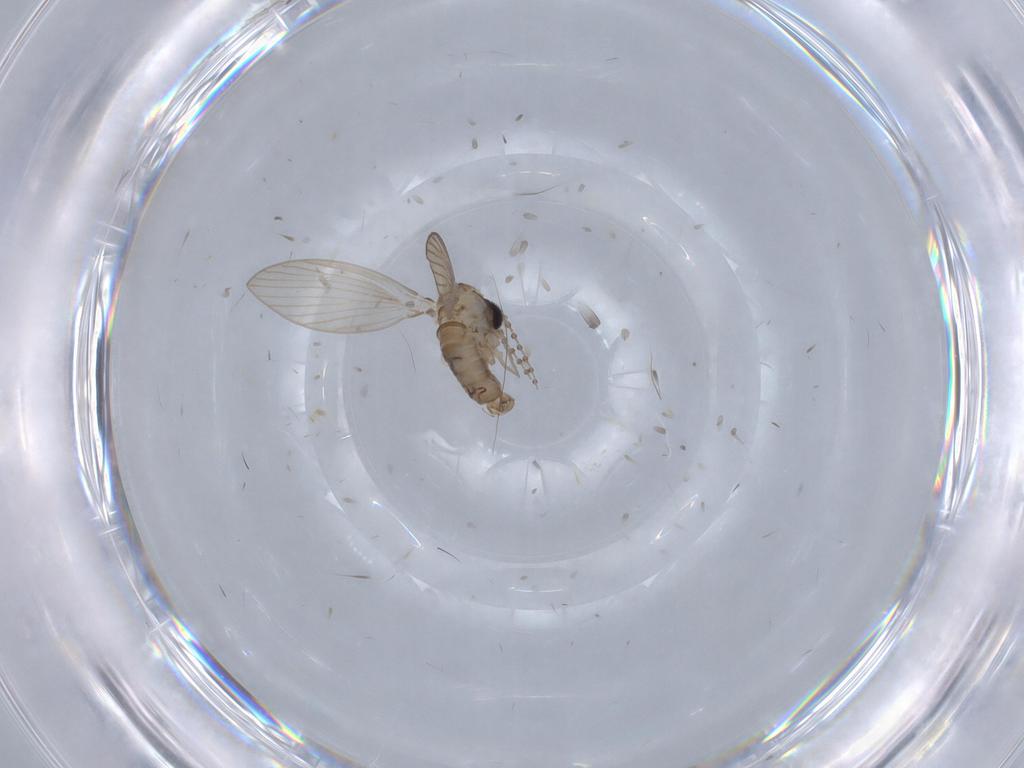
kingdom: Animalia
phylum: Arthropoda
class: Insecta
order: Diptera
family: Psychodidae
